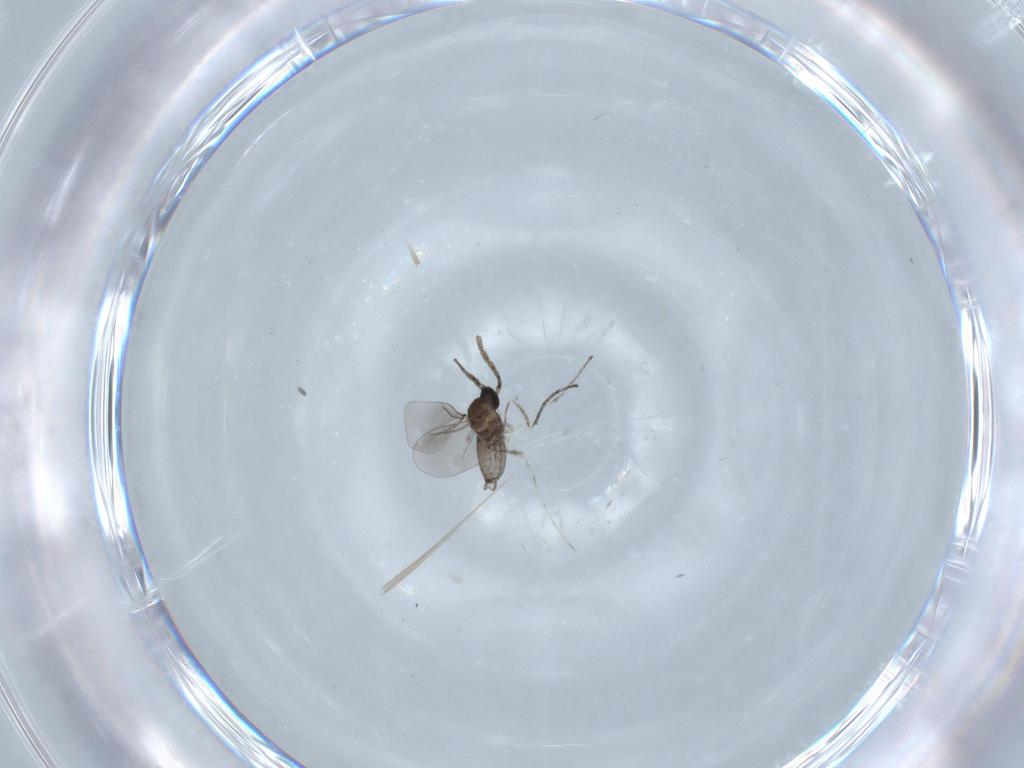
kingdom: Animalia
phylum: Arthropoda
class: Insecta
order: Diptera
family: Cecidomyiidae
